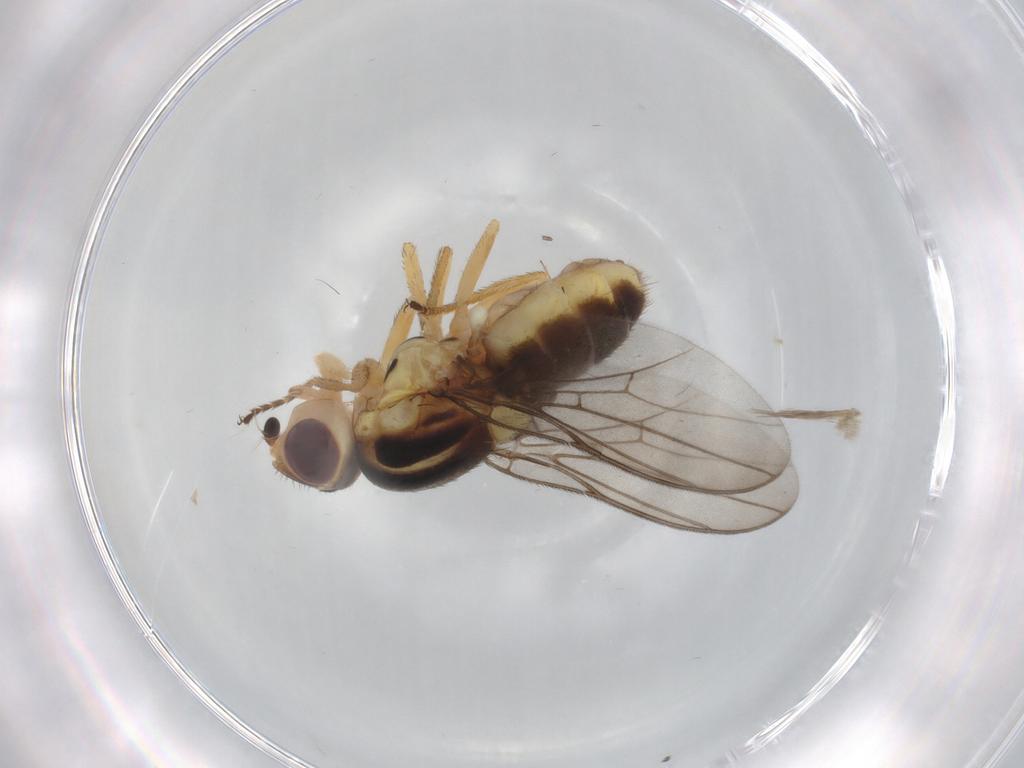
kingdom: Animalia
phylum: Arthropoda
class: Insecta
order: Diptera
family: Chloropidae
